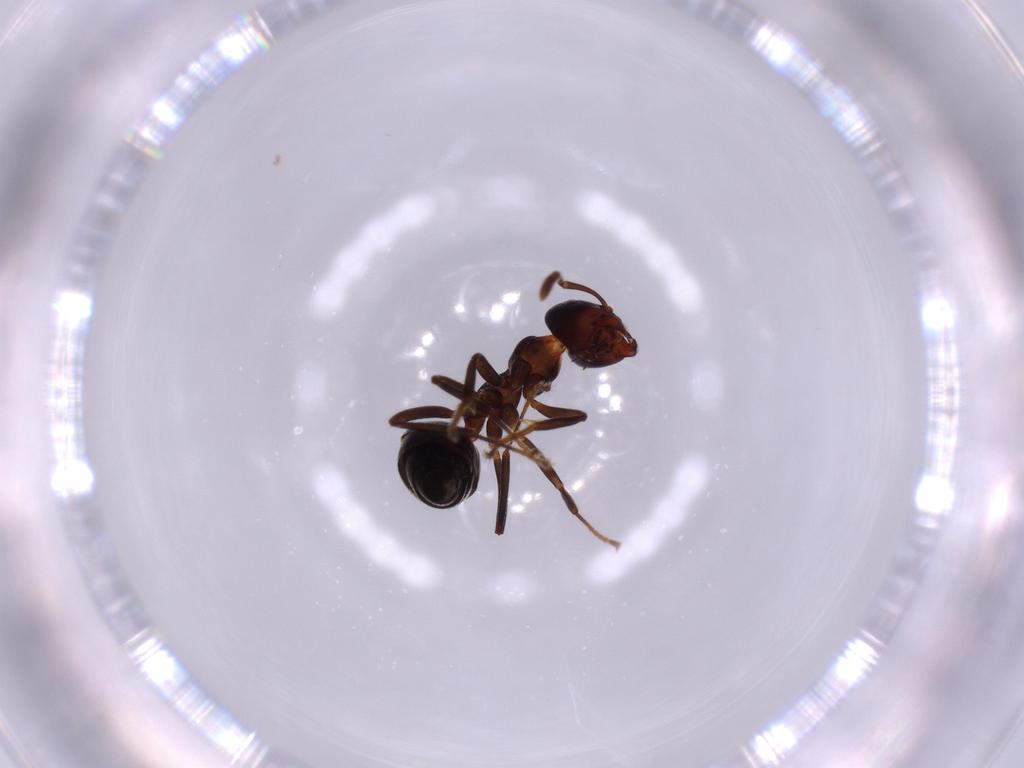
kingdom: Animalia
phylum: Arthropoda
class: Insecta
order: Hymenoptera
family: Formicidae
